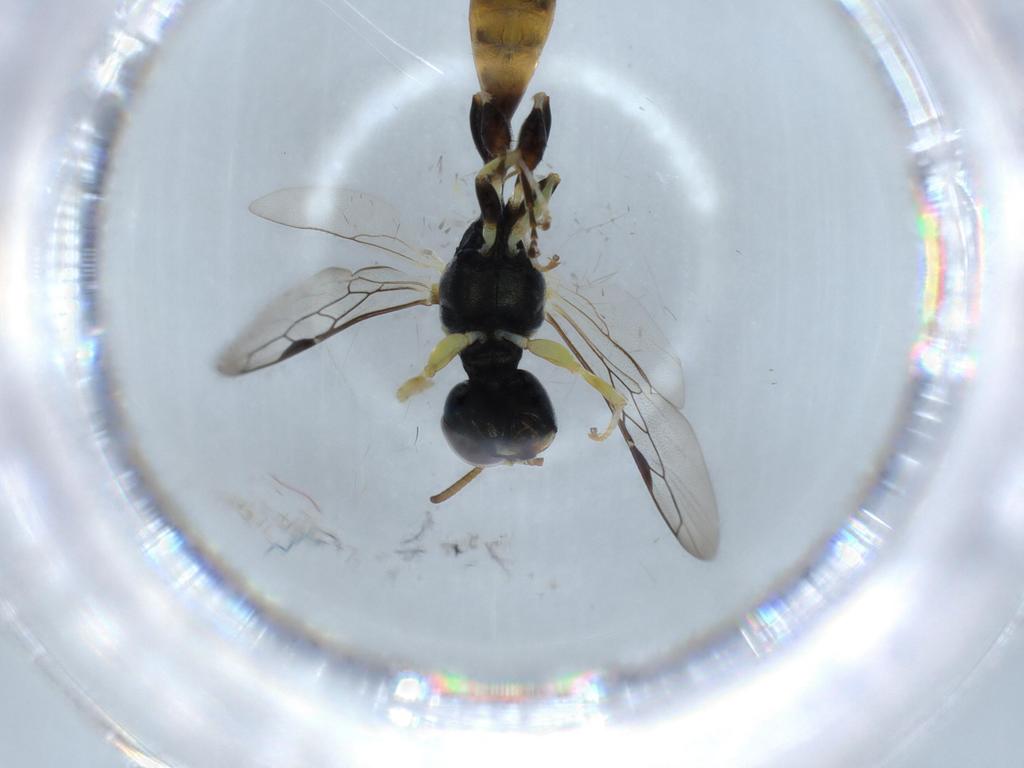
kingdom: Animalia
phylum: Arthropoda
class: Insecta
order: Hymenoptera
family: Crabronidae
